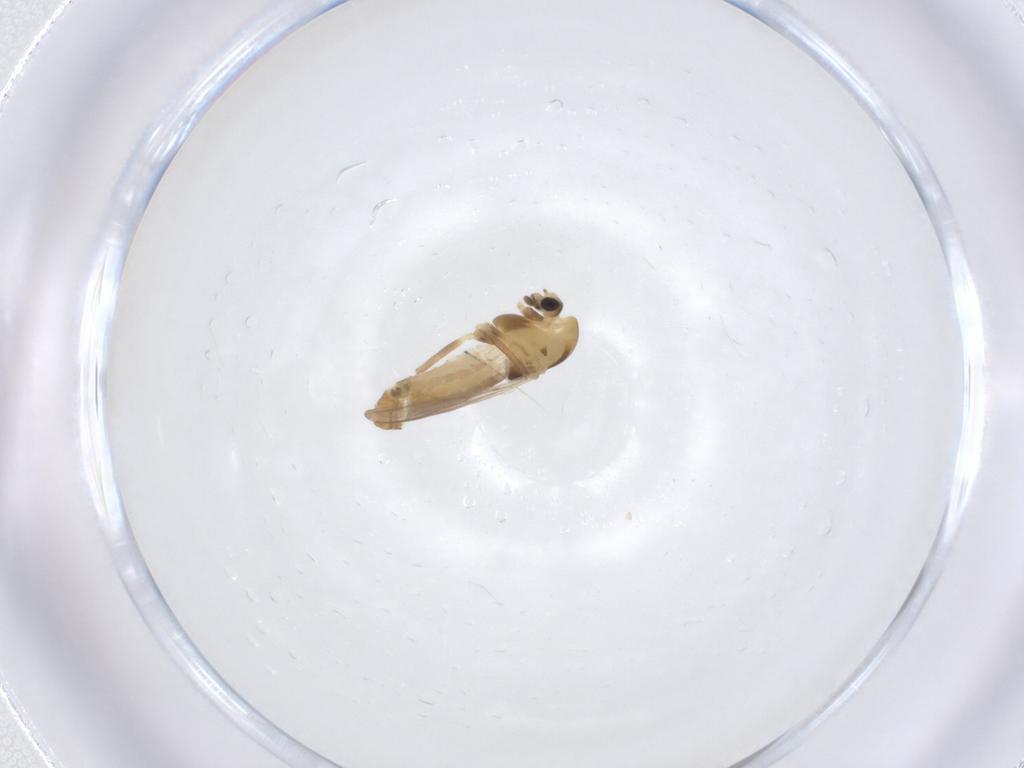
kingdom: Animalia
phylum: Arthropoda
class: Insecta
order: Diptera
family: Chironomidae
